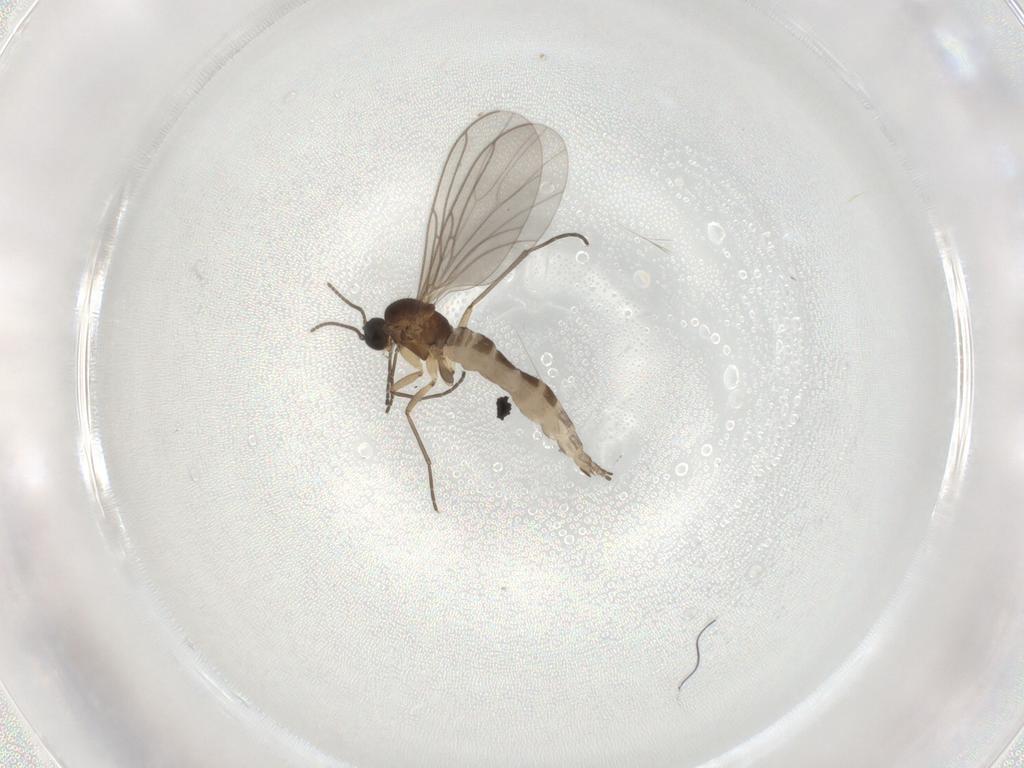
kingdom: Animalia
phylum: Arthropoda
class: Insecta
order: Diptera
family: Sciaridae
